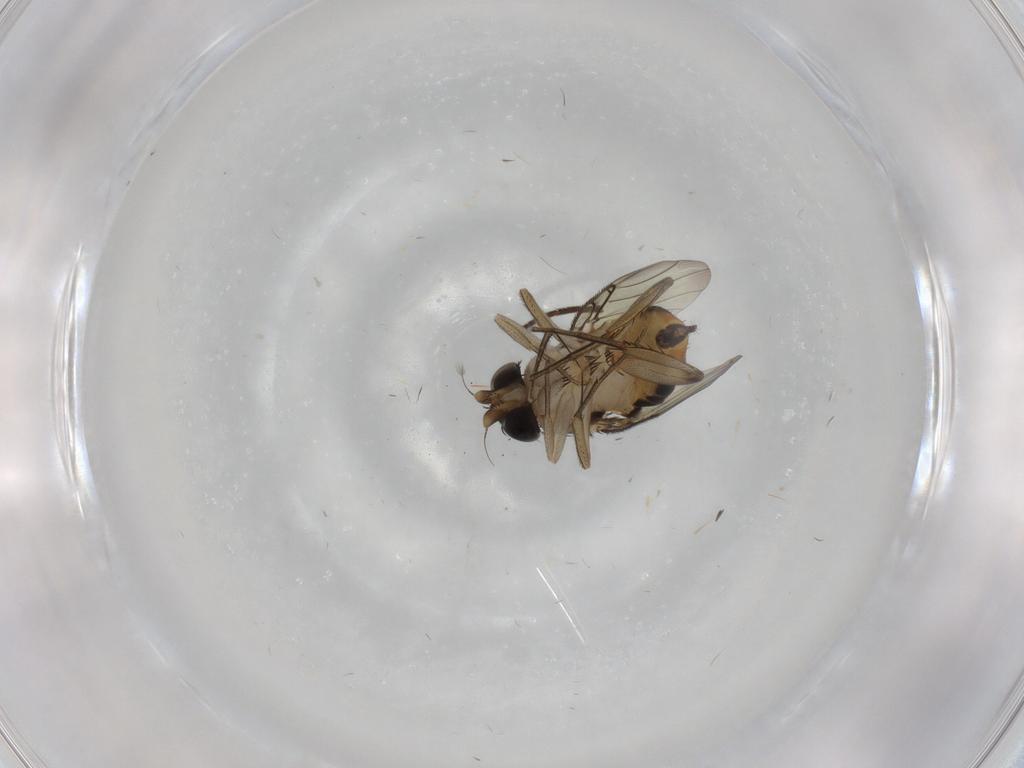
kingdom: Animalia
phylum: Arthropoda
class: Insecta
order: Diptera
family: Phoridae
